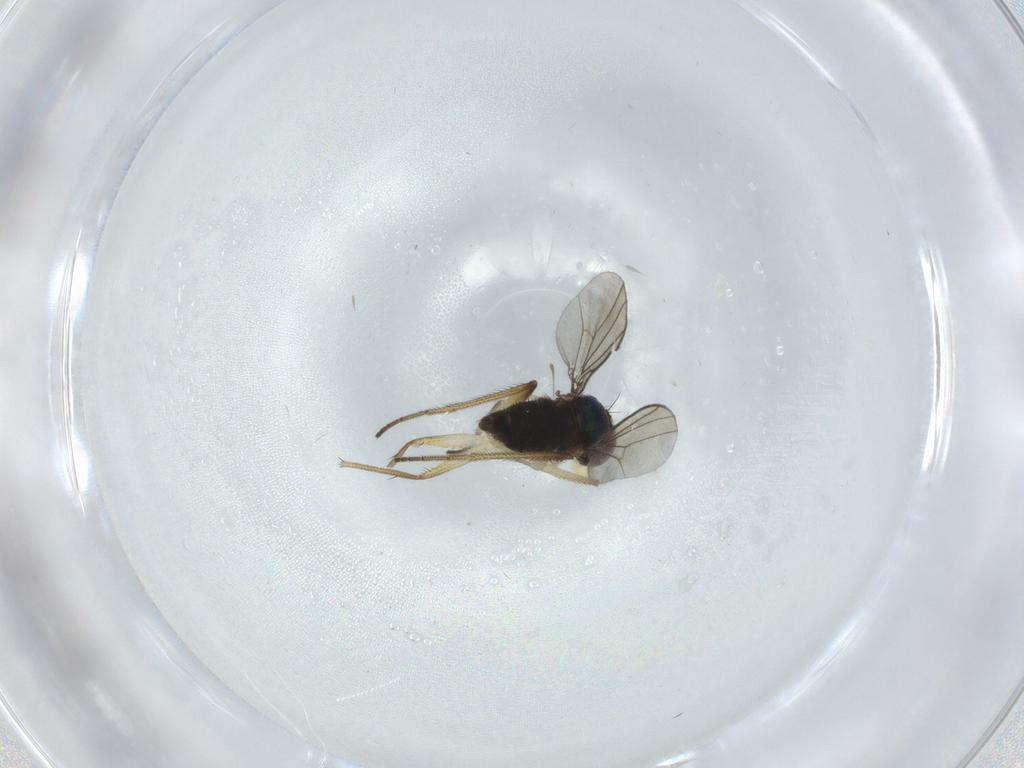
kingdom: Animalia
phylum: Arthropoda
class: Insecta
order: Diptera
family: Dolichopodidae
